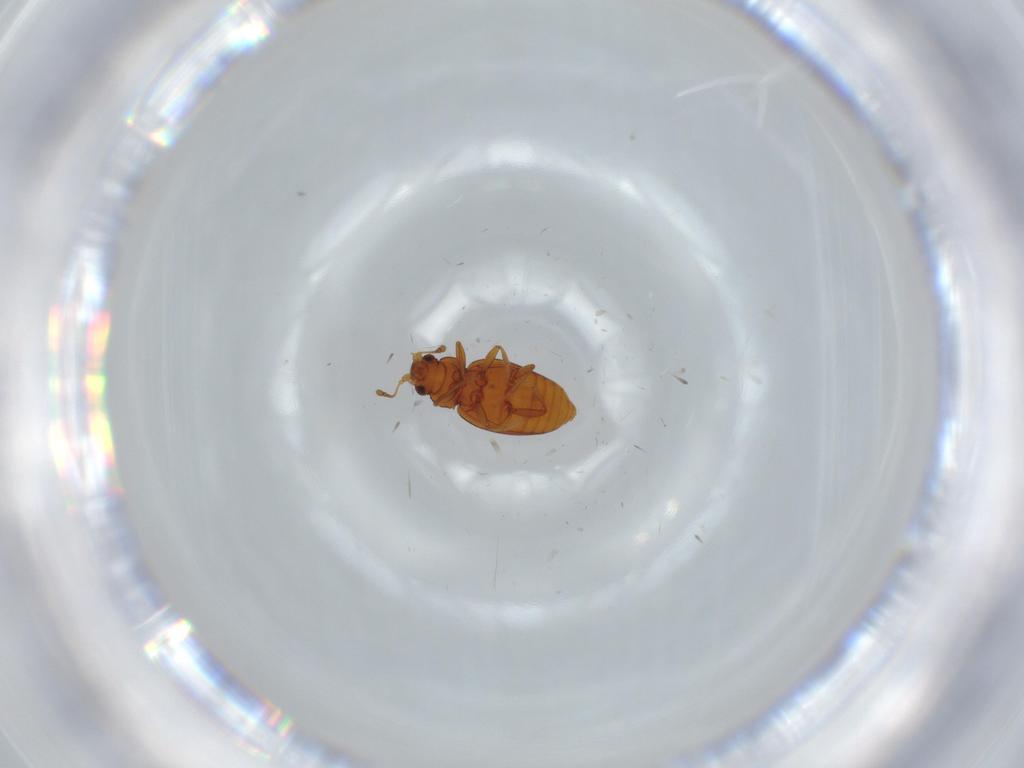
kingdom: Animalia
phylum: Arthropoda
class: Insecta
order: Coleoptera
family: Latridiidae
